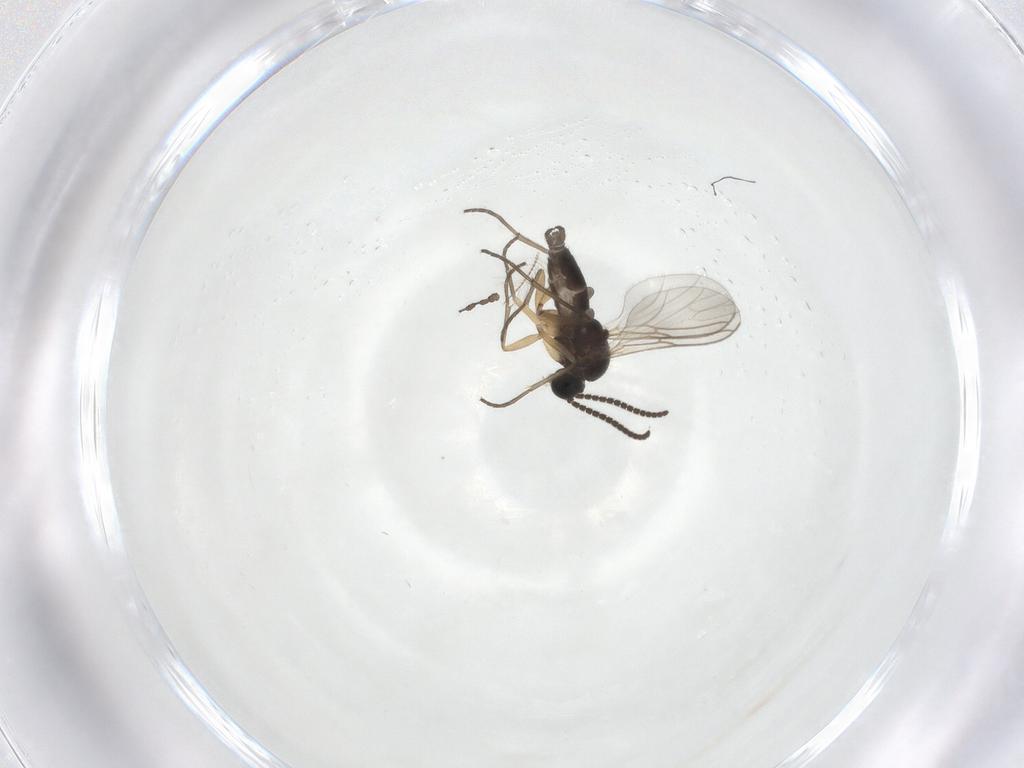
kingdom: Animalia
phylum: Arthropoda
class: Insecta
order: Diptera
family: Sciaridae
